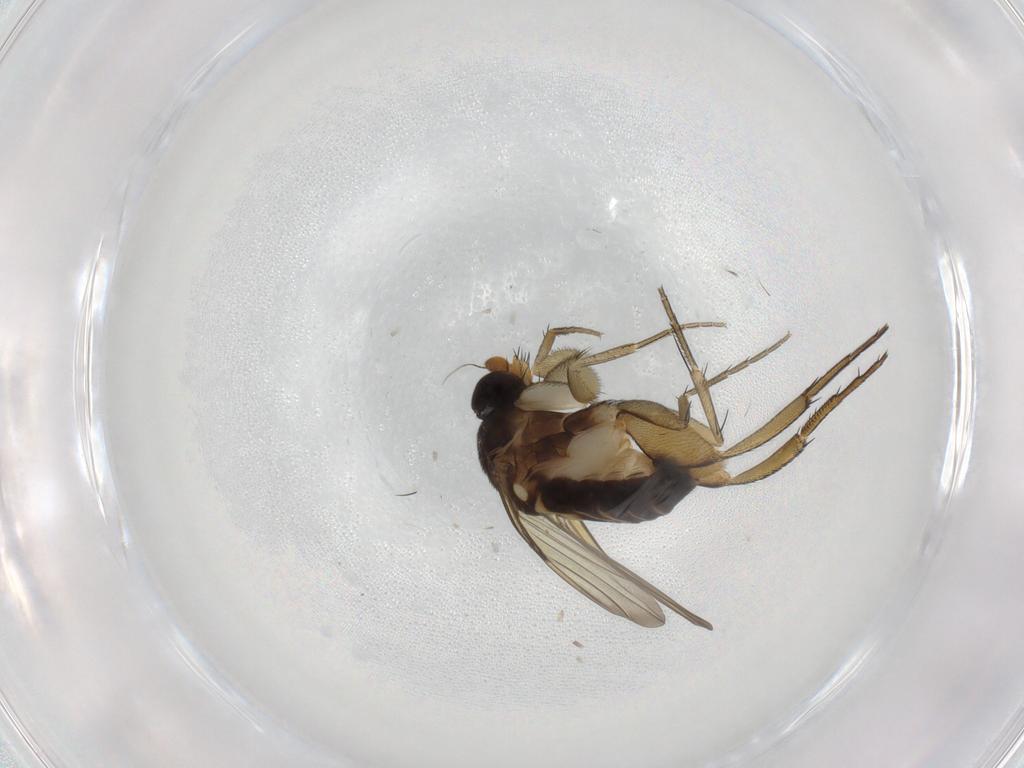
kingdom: Animalia
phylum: Arthropoda
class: Insecta
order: Diptera
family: Phoridae
